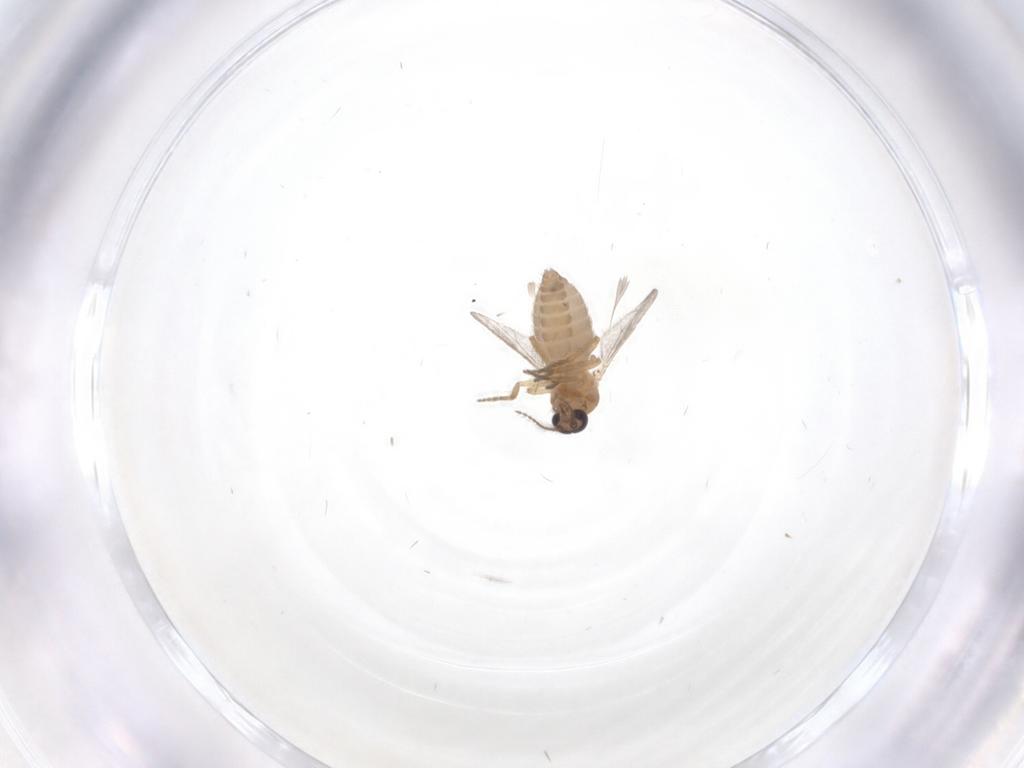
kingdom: Animalia
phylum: Arthropoda
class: Insecta
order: Diptera
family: Ceratopogonidae
